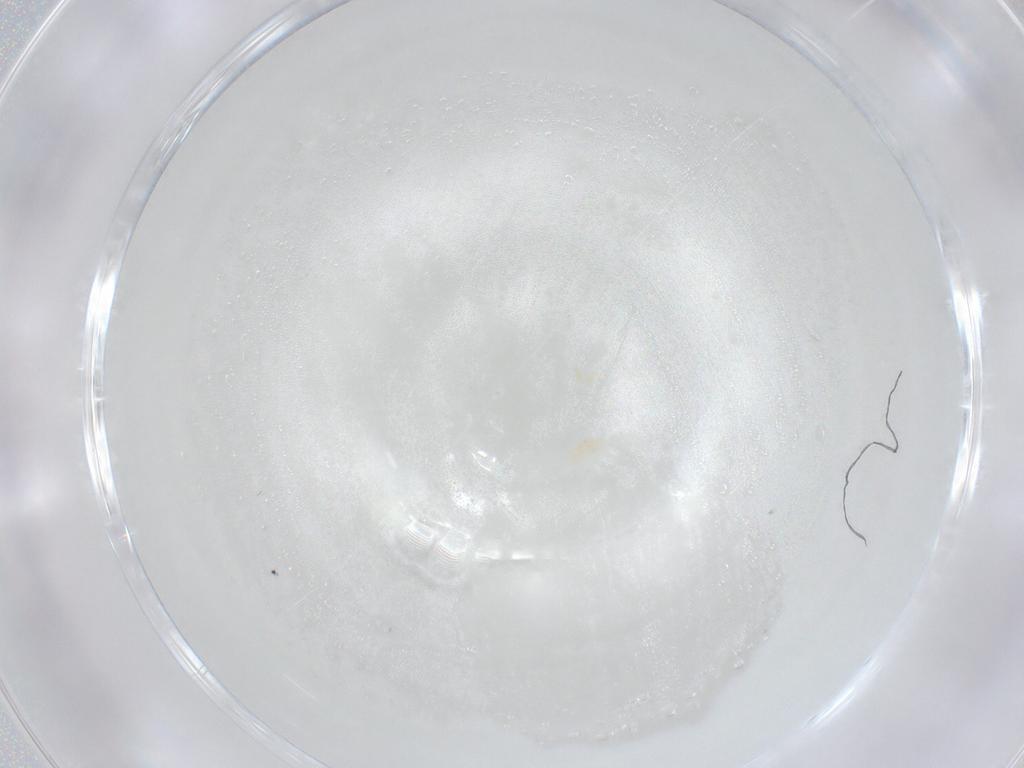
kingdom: Animalia
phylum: Arthropoda
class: Arachnida
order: Trombidiformes
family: Eupodidae
